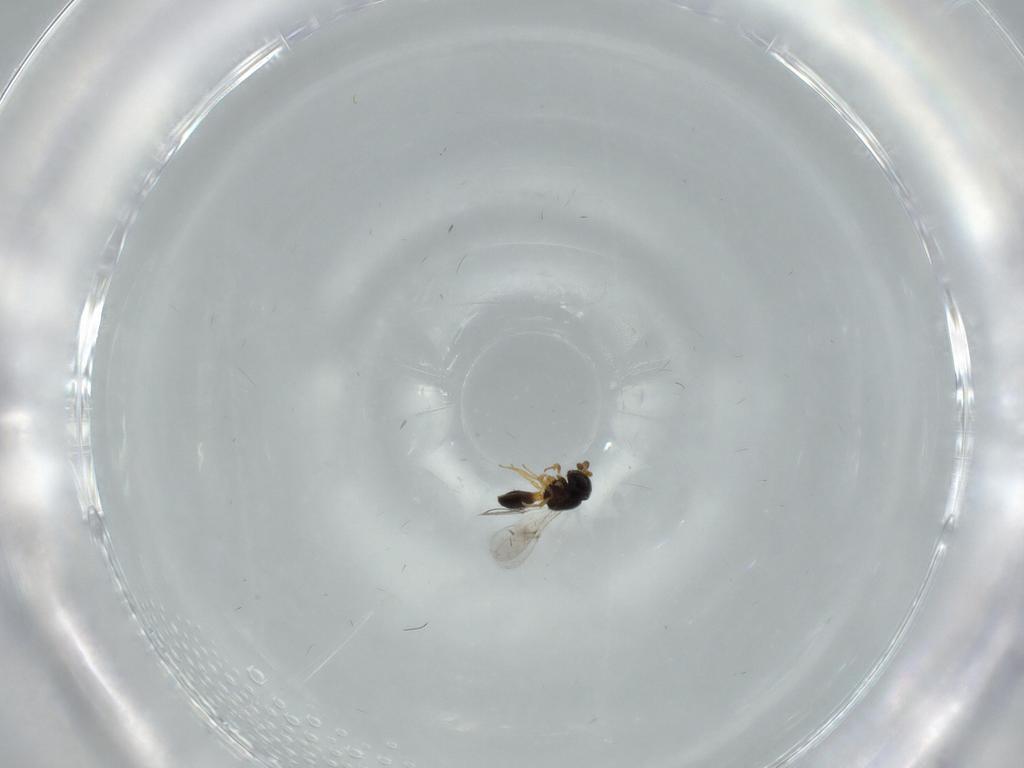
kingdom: Animalia
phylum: Arthropoda
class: Insecta
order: Hymenoptera
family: Scelionidae
